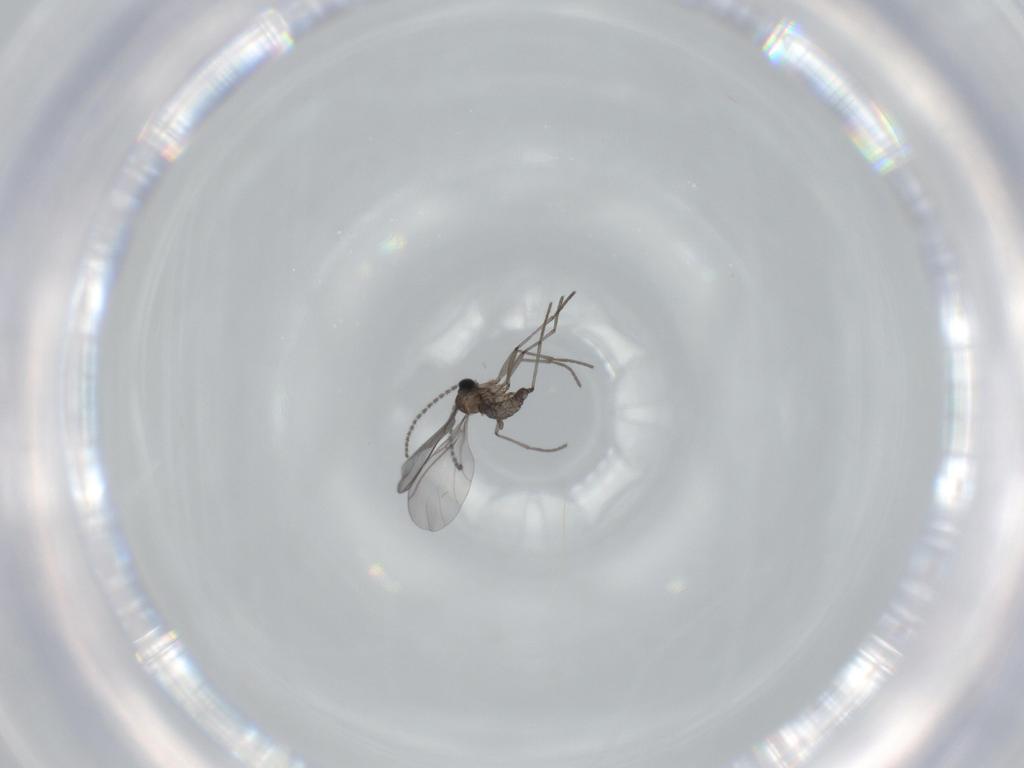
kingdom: Animalia
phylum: Arthropoda
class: Insecta
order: Diptera
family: Sciaridae
